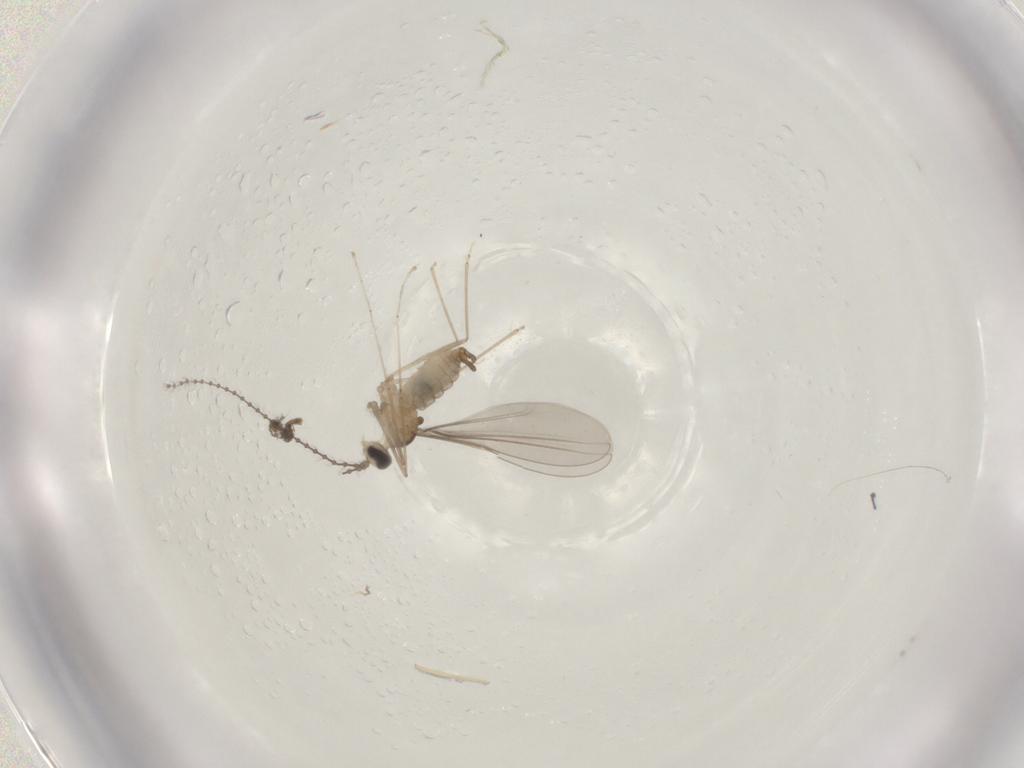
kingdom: Animalia
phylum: Arthropoda
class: Insecta
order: Diptera
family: Cecidomyiidae
